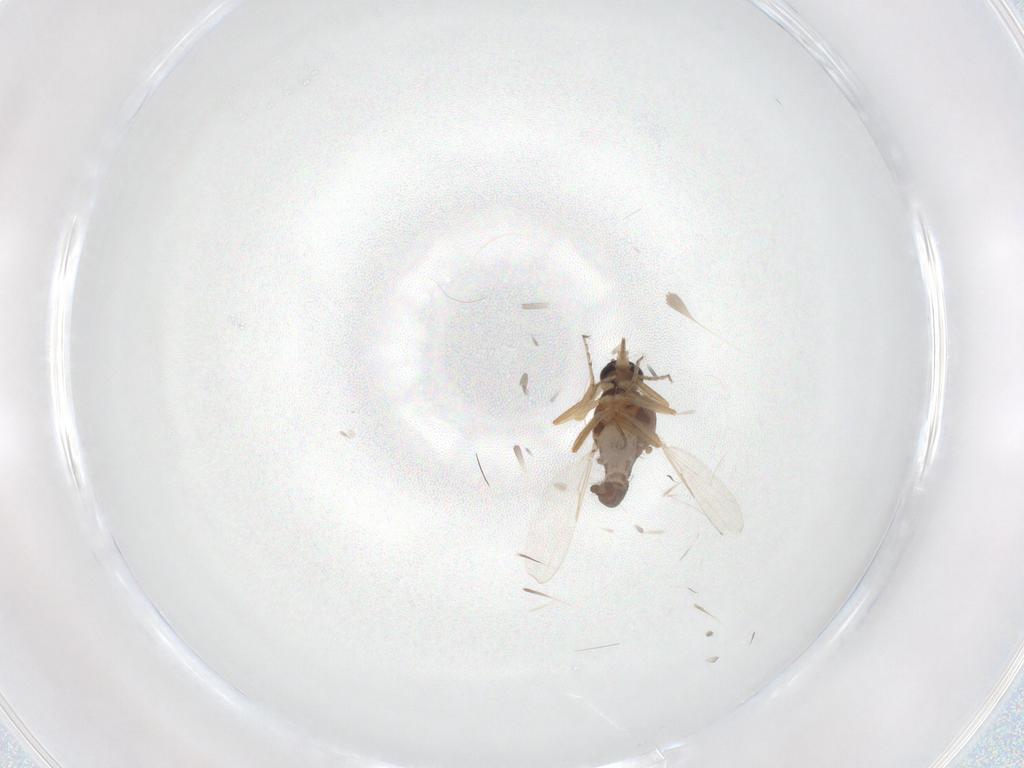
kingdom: Animalia
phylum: Arthropoda
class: Insecta
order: Diptera
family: Ceratopogonidae
